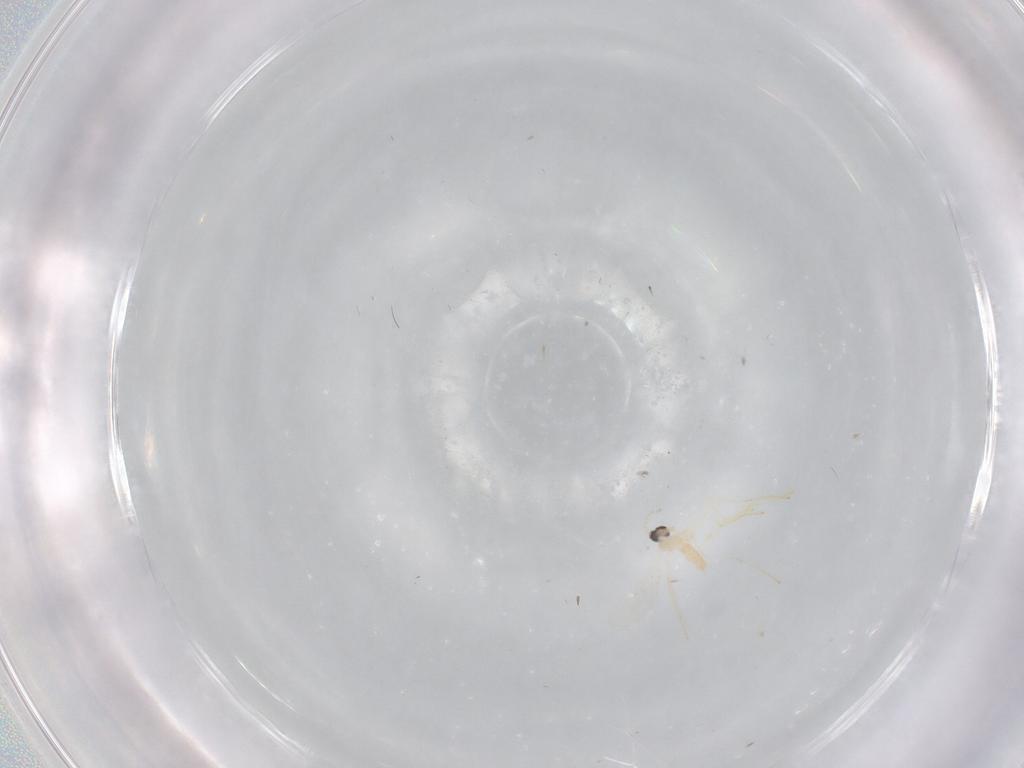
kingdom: Animalia
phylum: Arthropoda
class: Insecta
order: Diptera
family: Cecidomyiidae
